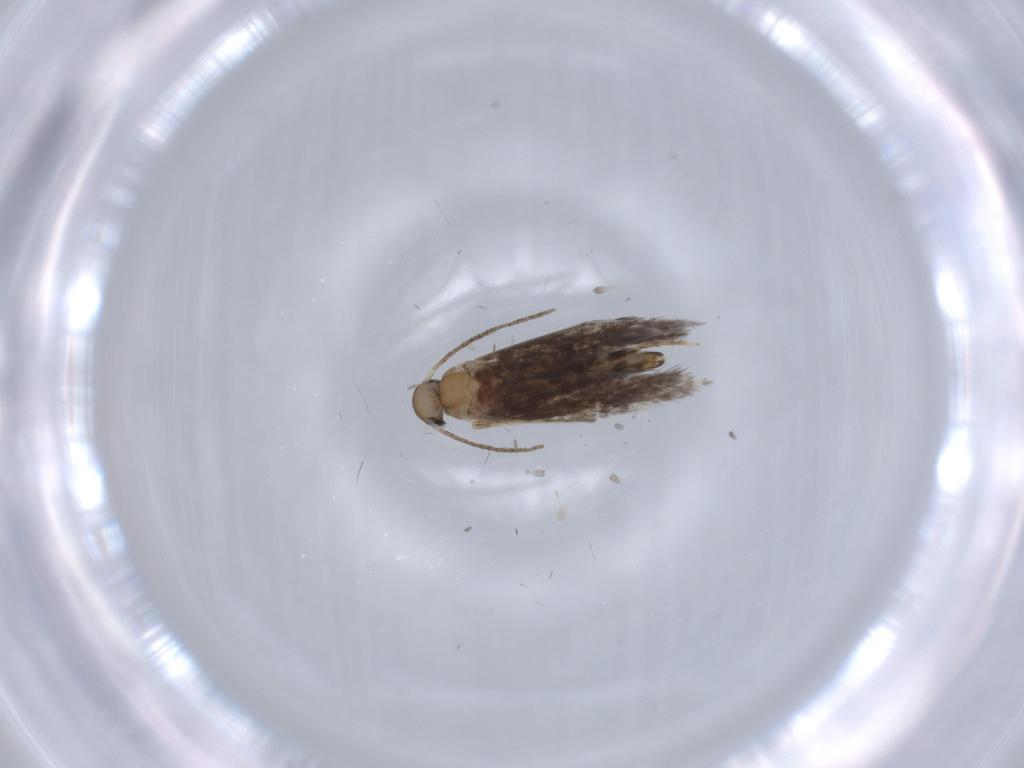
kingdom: Animalia
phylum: Arthropoda
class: Insecta
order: Lepidoptera
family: Heliozelidae
